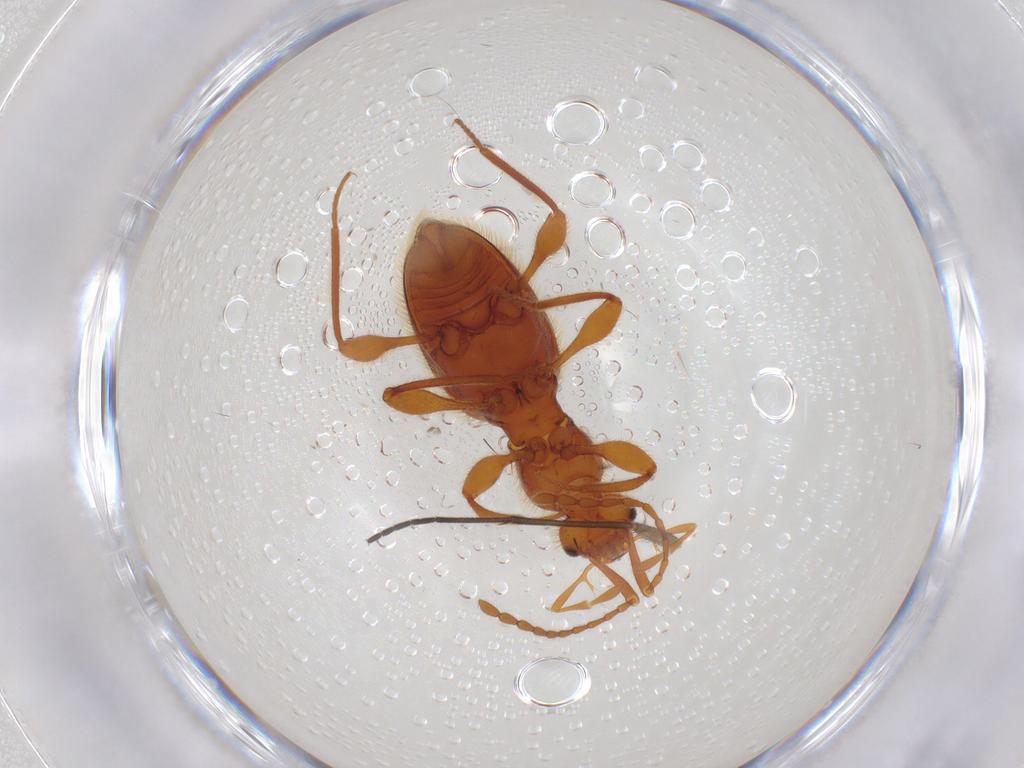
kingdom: Animalia
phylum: Arthropoda
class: Insecta
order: Coleoptera
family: Staphylinidae
